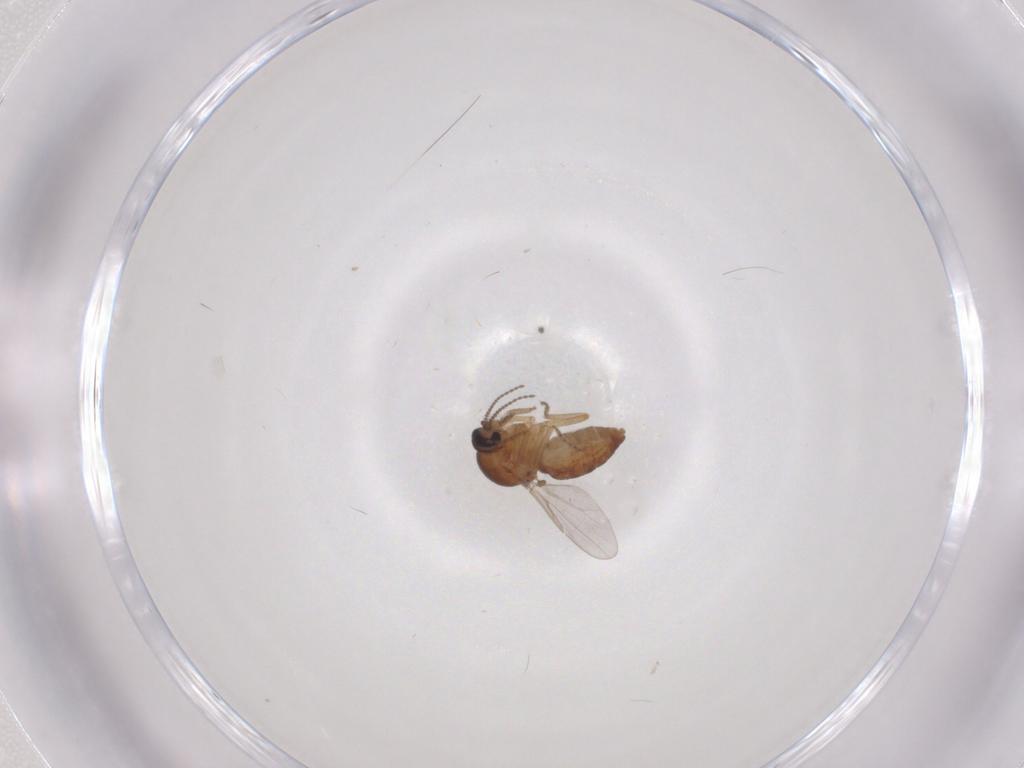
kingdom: Animalia
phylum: Arthropoda
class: Insecta
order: Diptera
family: Ceratopogonidae
